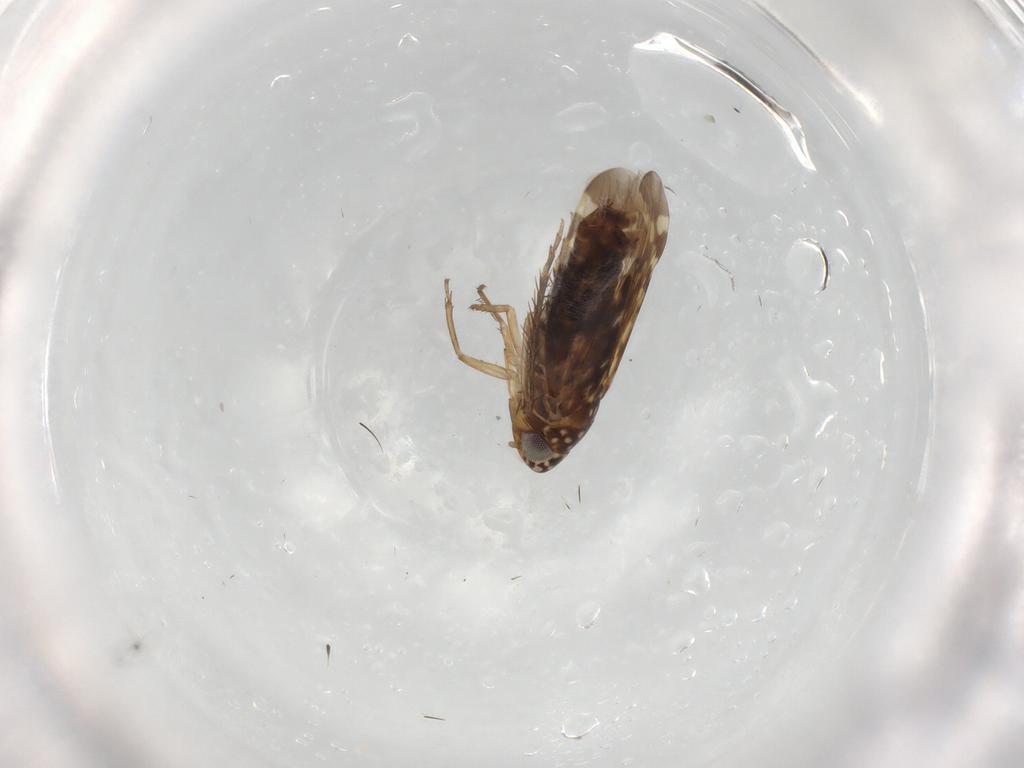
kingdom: Animalia
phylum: Arthropoda
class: Insecta
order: Hemiptera
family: Cicadellidae
